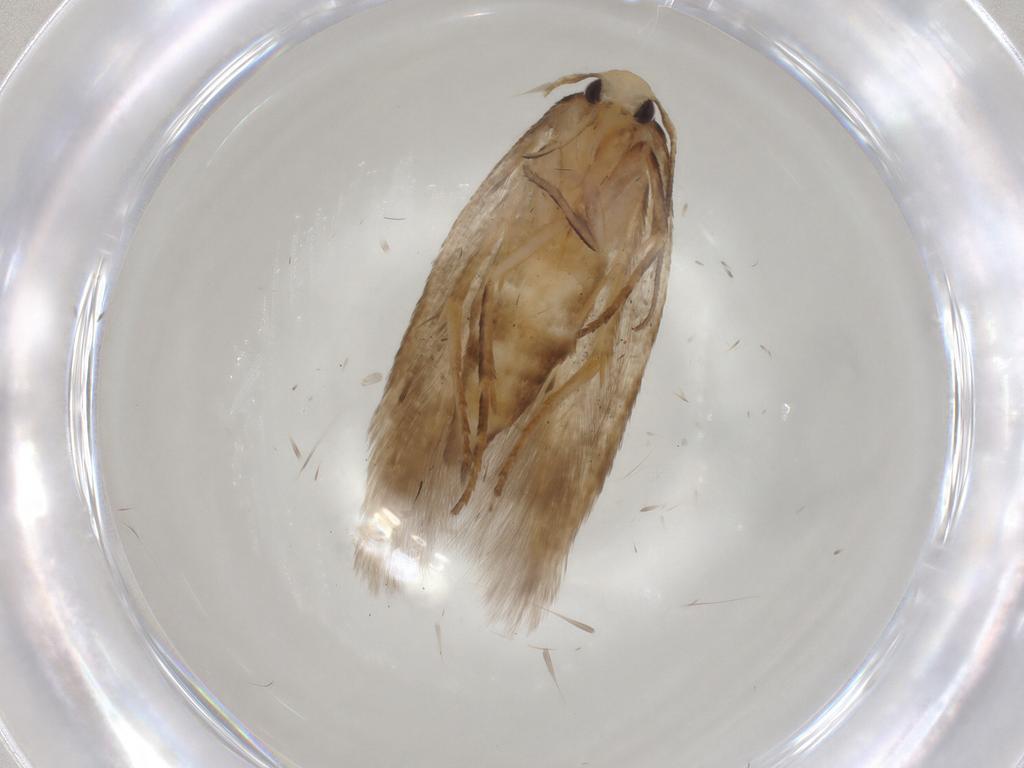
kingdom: Animalia
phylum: Arthropoda
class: Insecta
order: Lepidoptera
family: Cosmopterigidae
